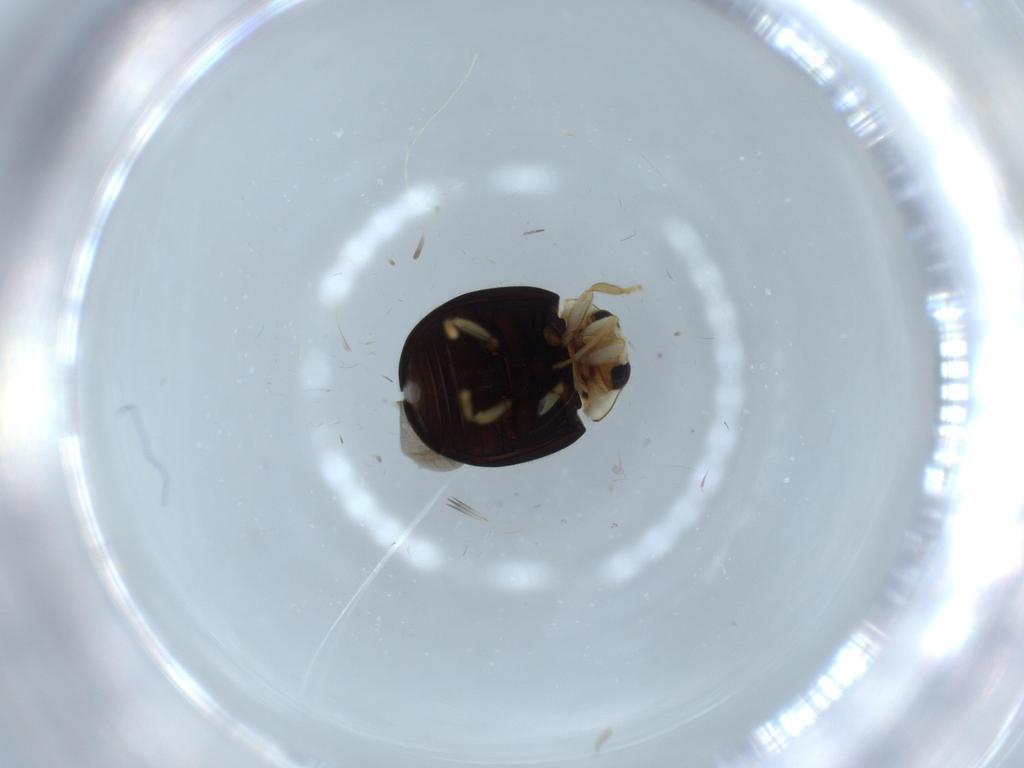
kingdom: Animalia
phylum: Arthropoda
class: Insecta
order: Coleoptera
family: Coccinellidae
